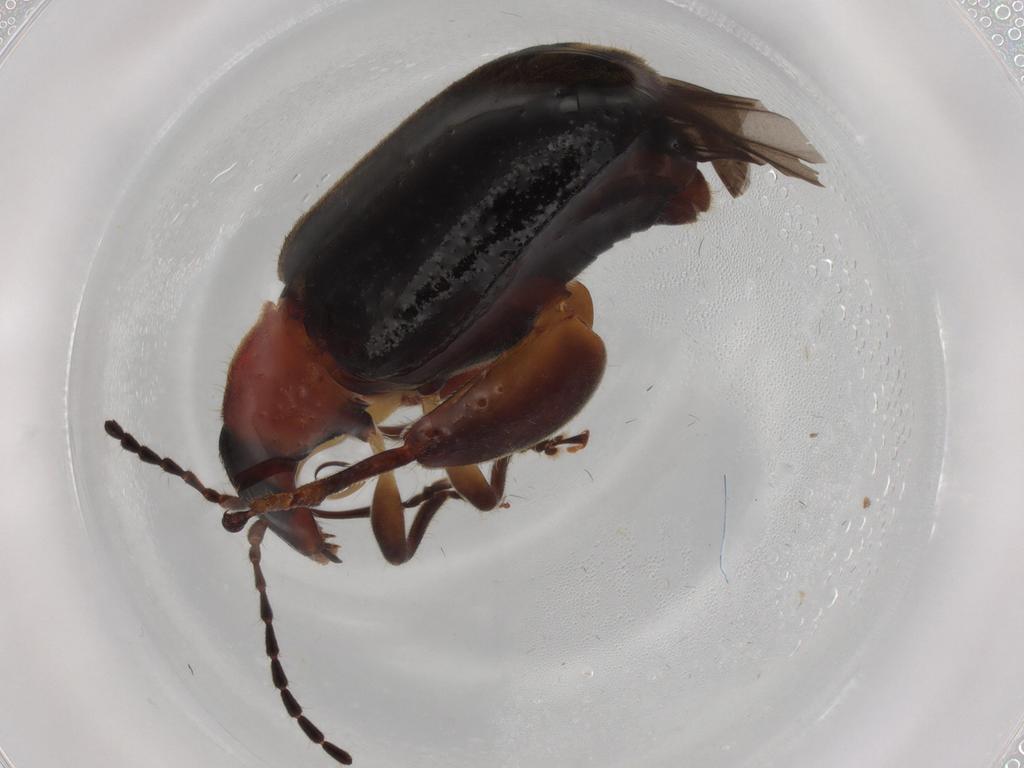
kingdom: Animalia
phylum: Arthropoda
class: Insecta
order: Coleoptera
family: Chrysomelidae
